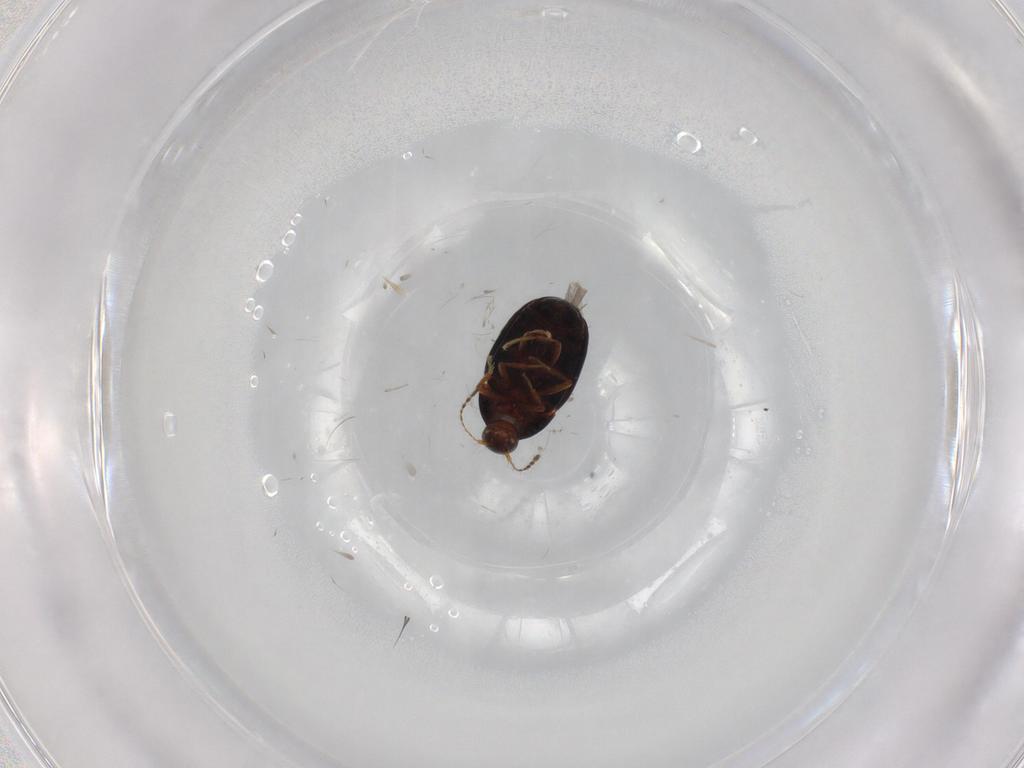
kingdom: Animalia
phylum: Arthropoda
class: Insecta
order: Coleoptera
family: Staphylinidae
